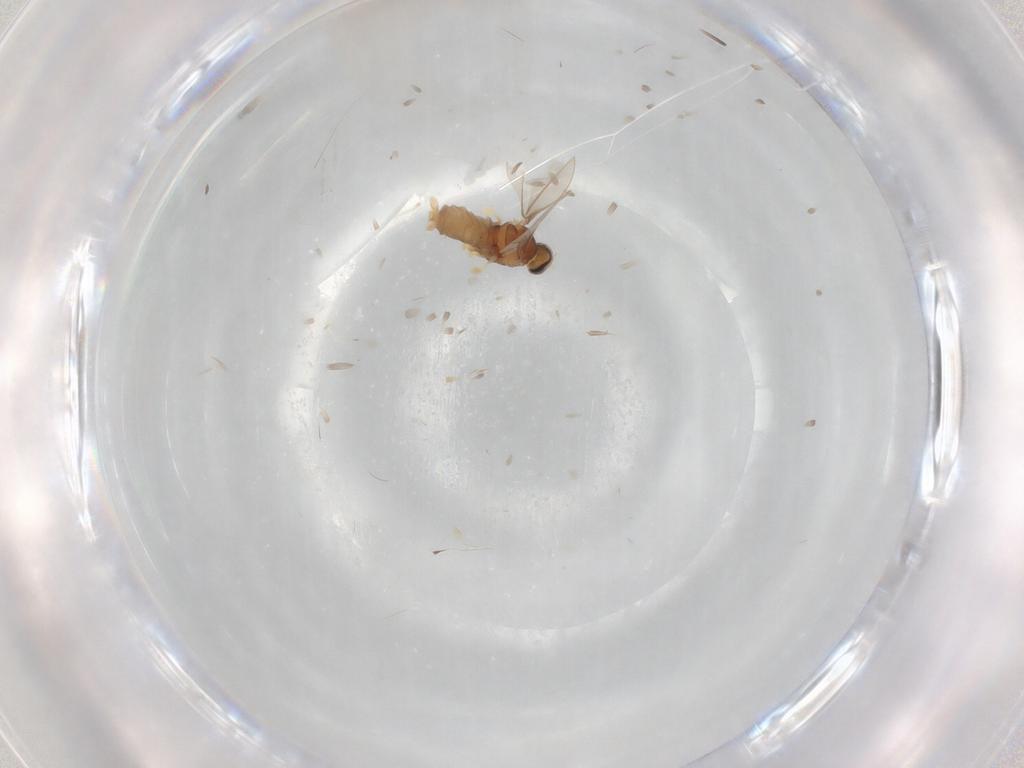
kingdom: Animalia
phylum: Arthropoda
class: Insecta
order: Diptera
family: Cecidomyiidae
